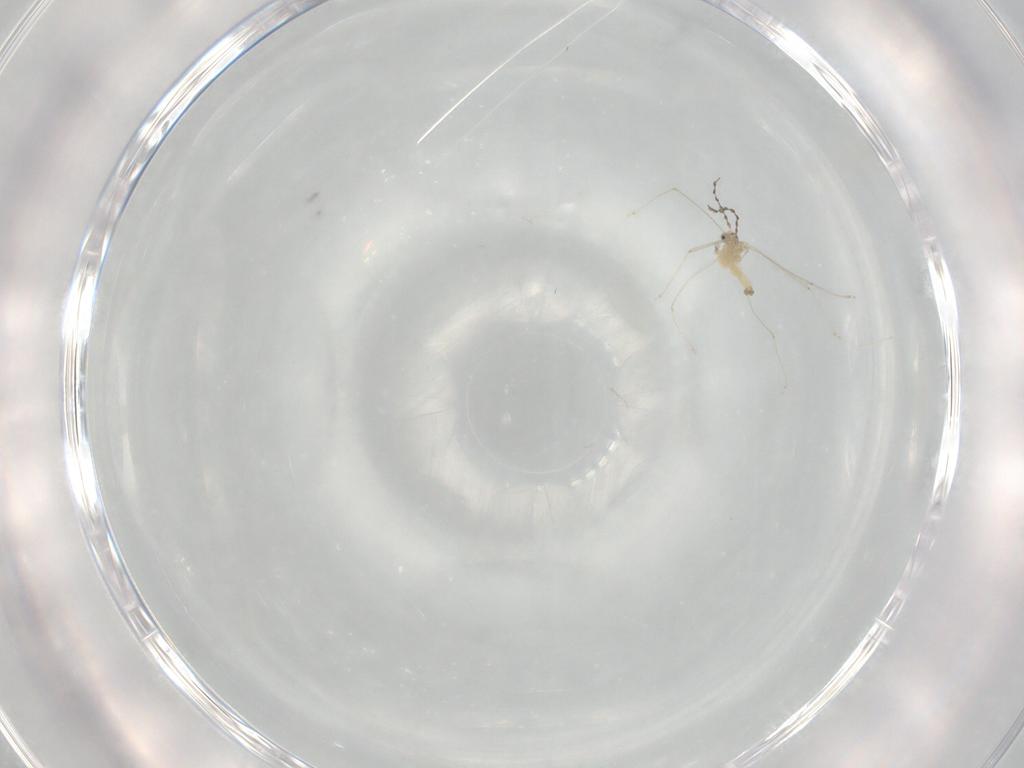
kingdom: Animalia
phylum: Arthropoda
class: Insecta
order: Diptera
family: Cecidomyiidae
